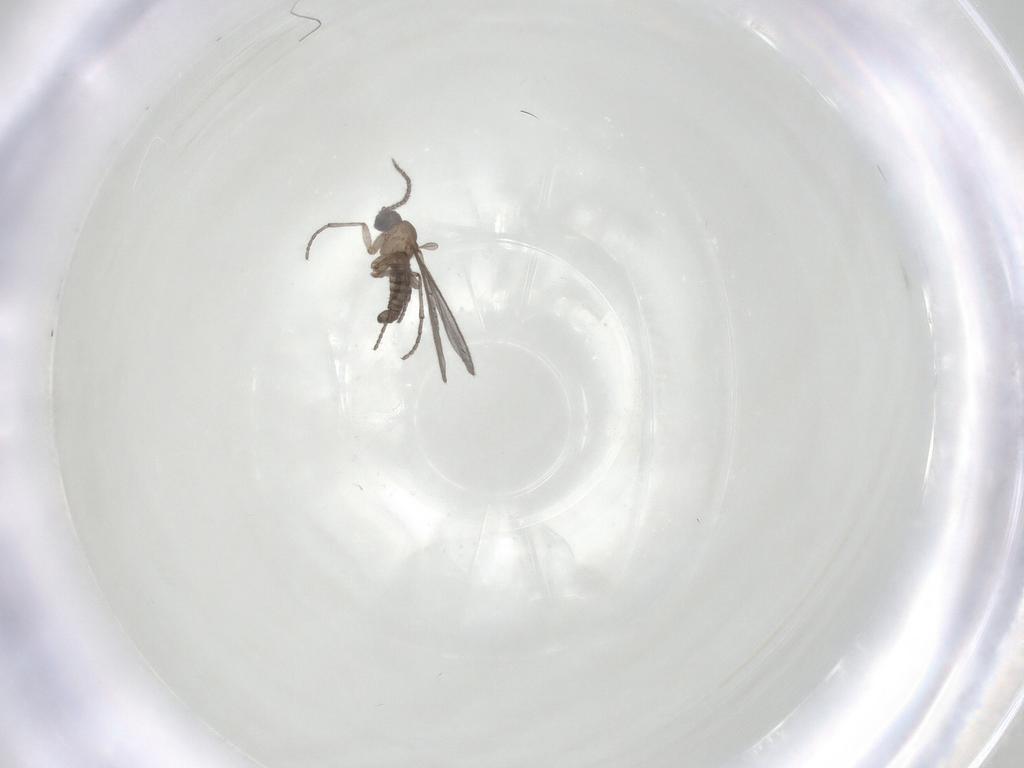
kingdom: Animalia
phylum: Arthropoda
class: Insecta
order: Diptera
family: Sciaridae
